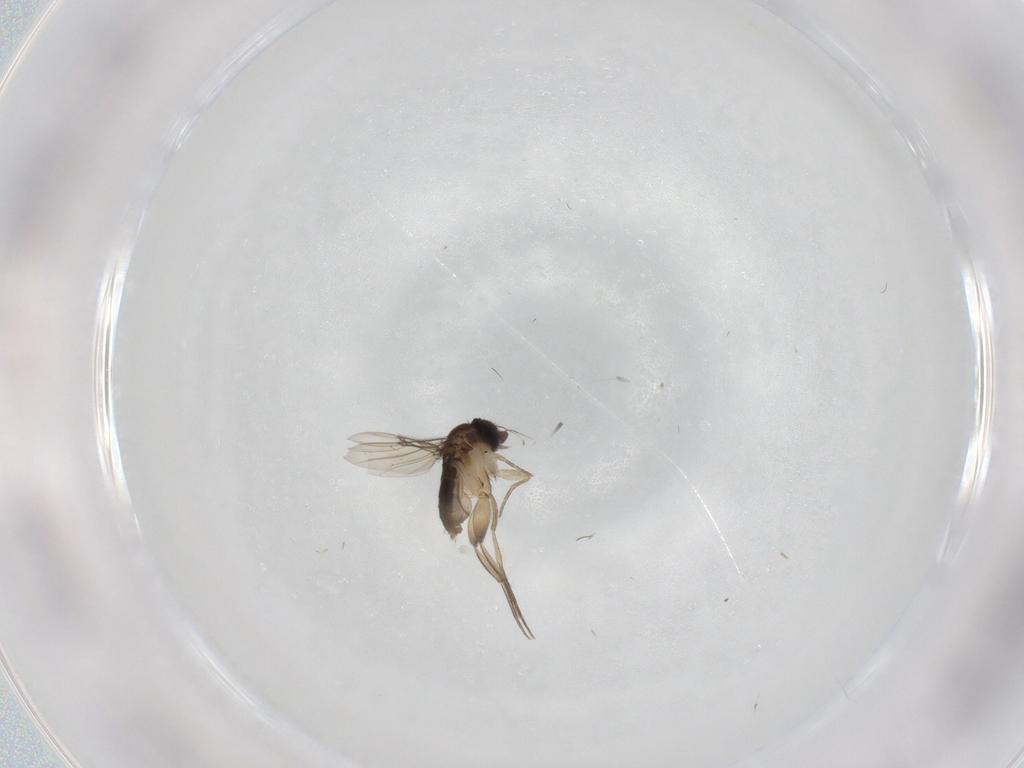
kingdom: Animalia
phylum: Arthropoda
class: Insecta
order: Diptera
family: Phoridae
